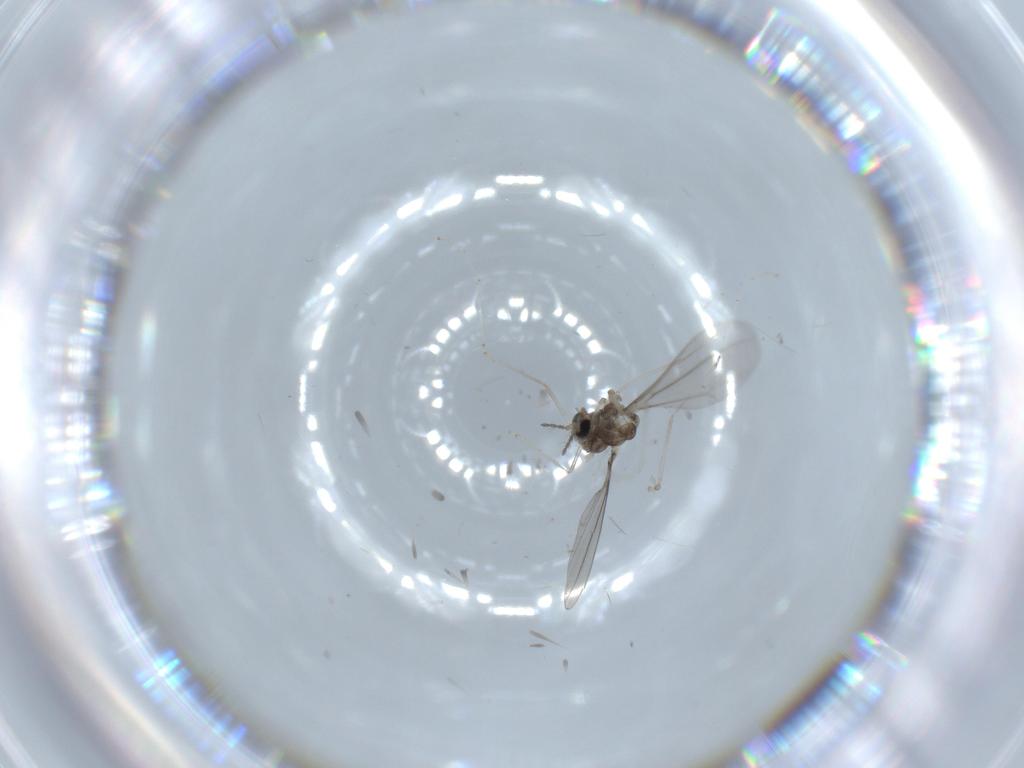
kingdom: Animalia
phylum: Arthropoda
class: Insecta
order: Diptera
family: Cecidomyiidae
